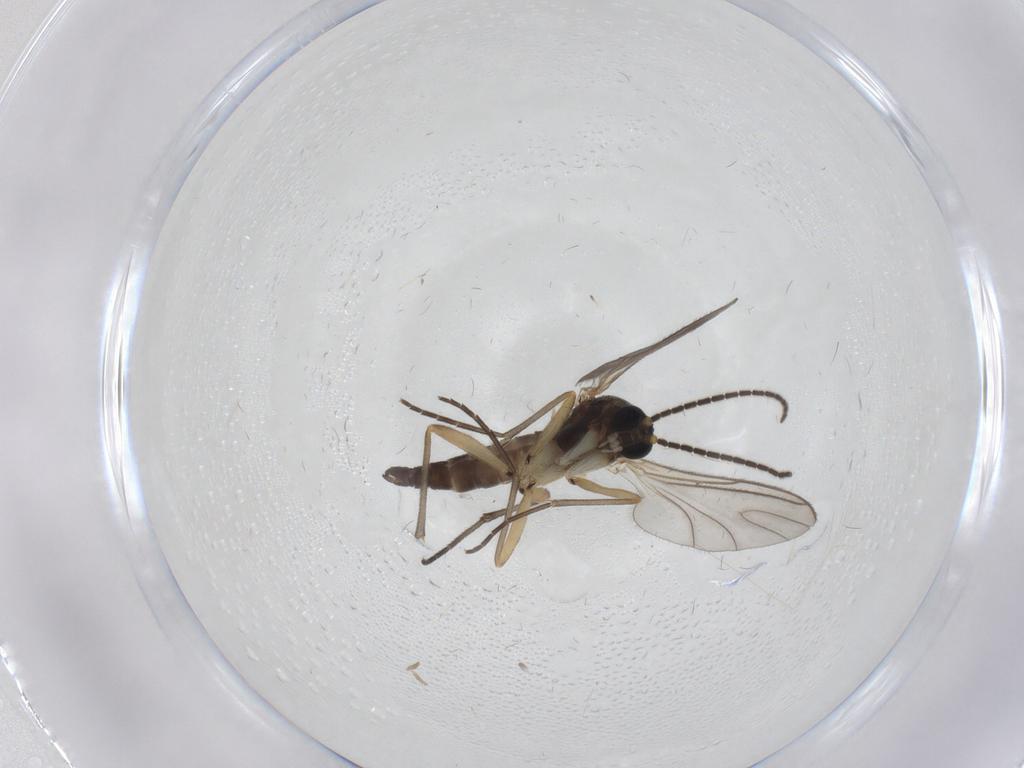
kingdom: Animalia
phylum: Arthropoda
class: Insecta
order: Diptera
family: Sciaridae
